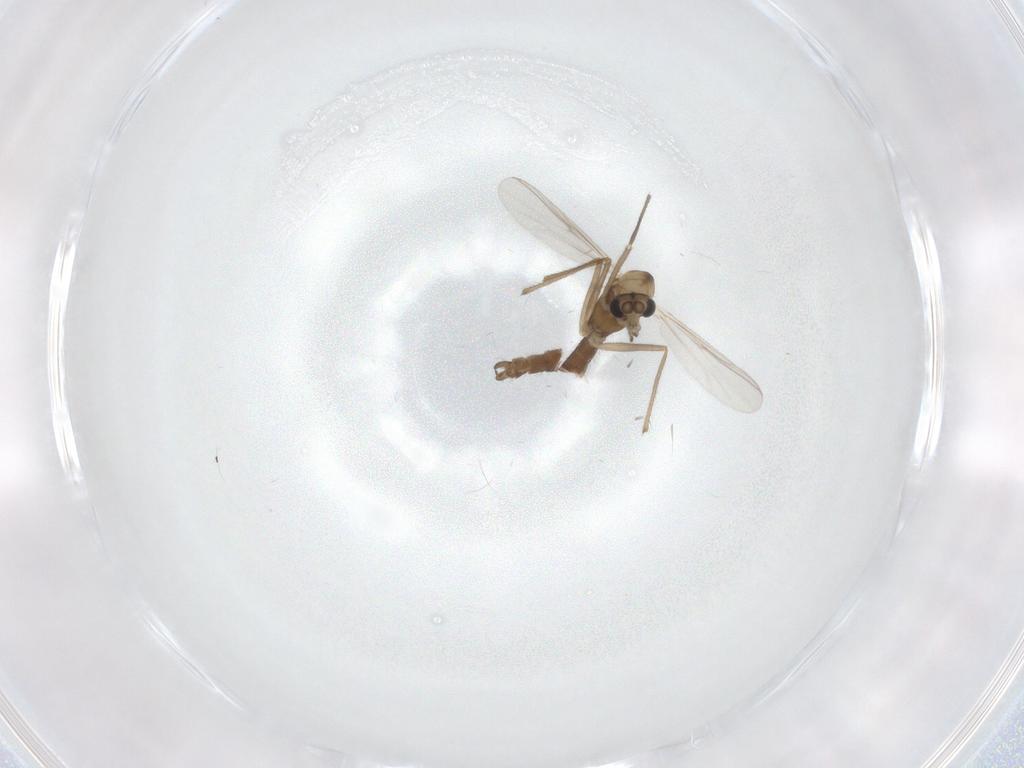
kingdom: Animalia
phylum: Arthropoda
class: Insecta
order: Diptera
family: Chironomidae
